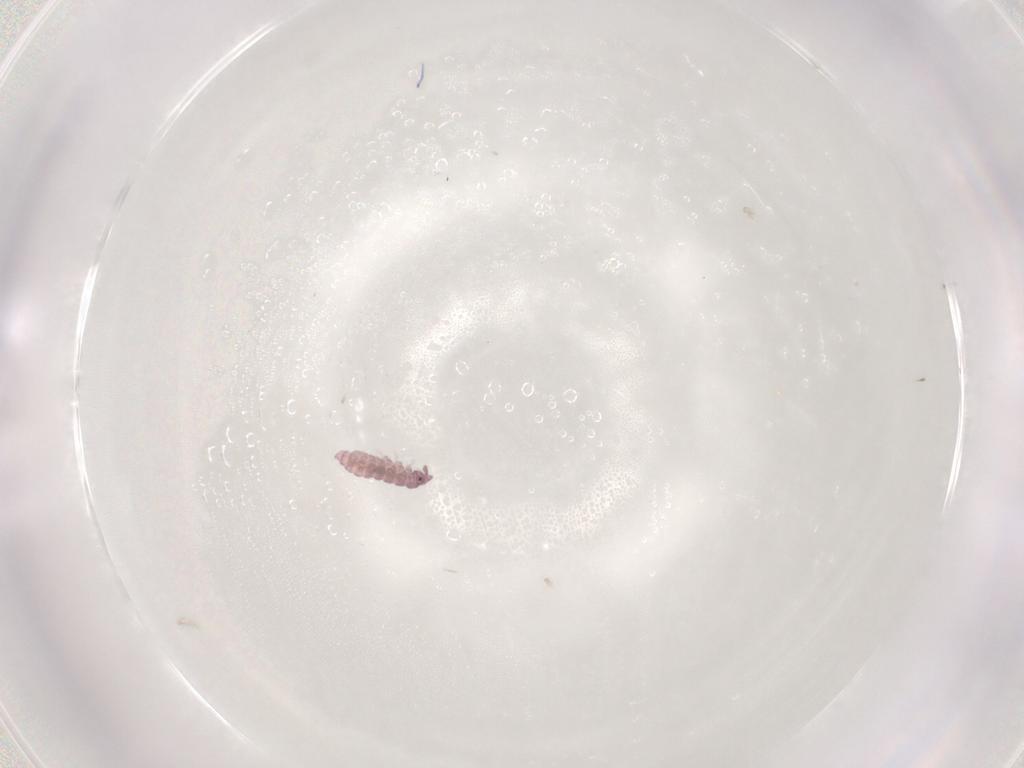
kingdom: Animalia
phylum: Arthropoda
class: Collembola
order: Poduromorpha
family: Hypogastruridae
